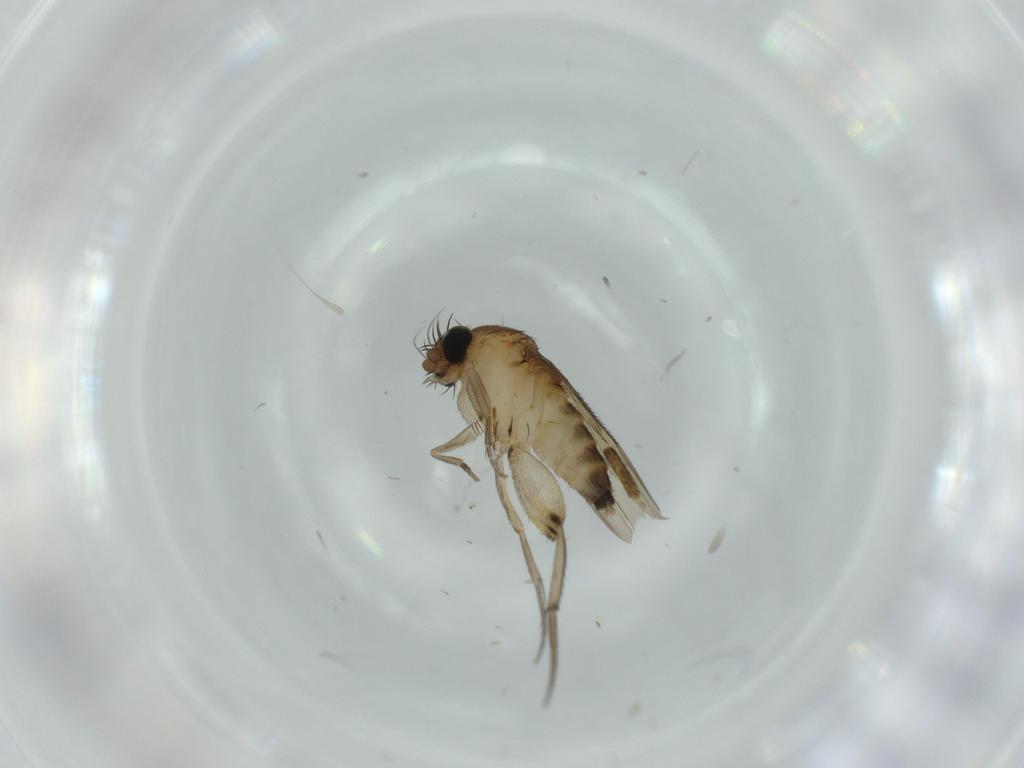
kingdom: Animalia
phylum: Arthropoda
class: Insecta
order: Diptera
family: Phoridae
